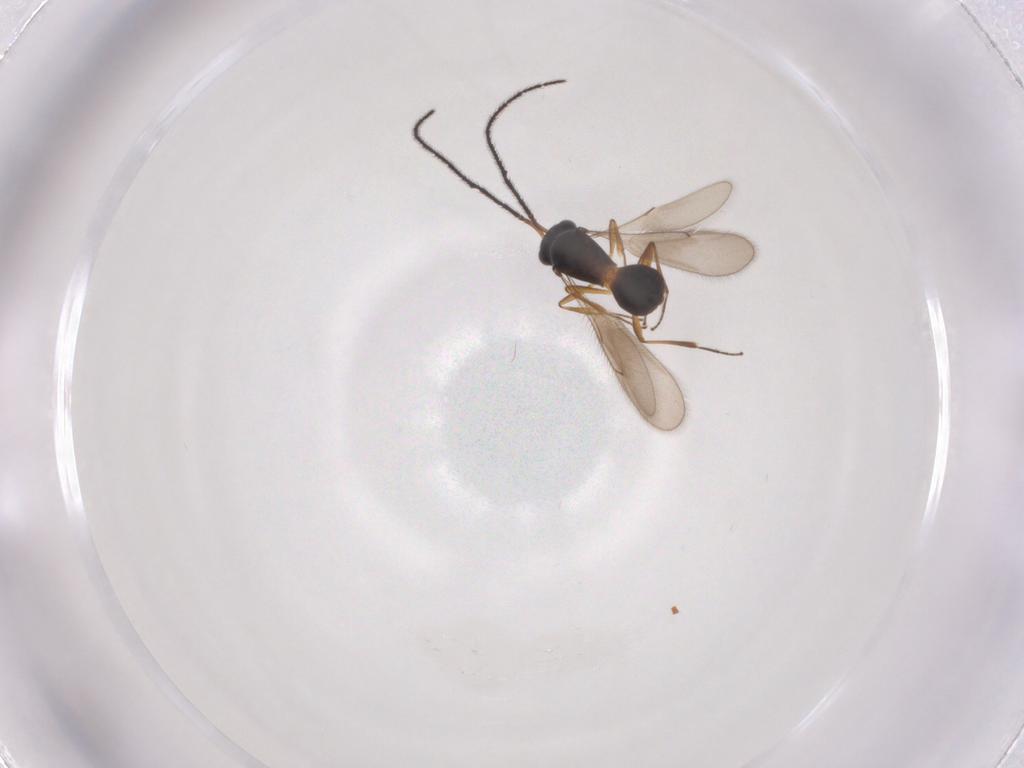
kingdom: Animalia
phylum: Arthropoda
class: Insecta
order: Hymenoptera
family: Scelionidae
